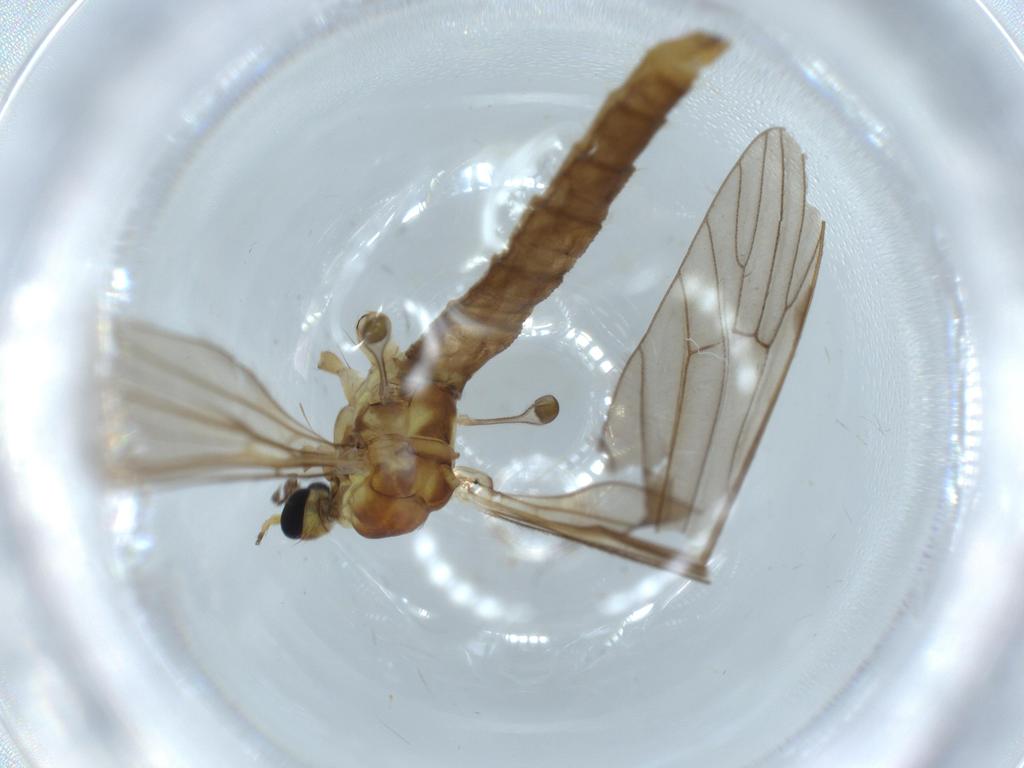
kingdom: Animalia
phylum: Arthropoda
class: Insecta
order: Diptera
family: Limoniidae
